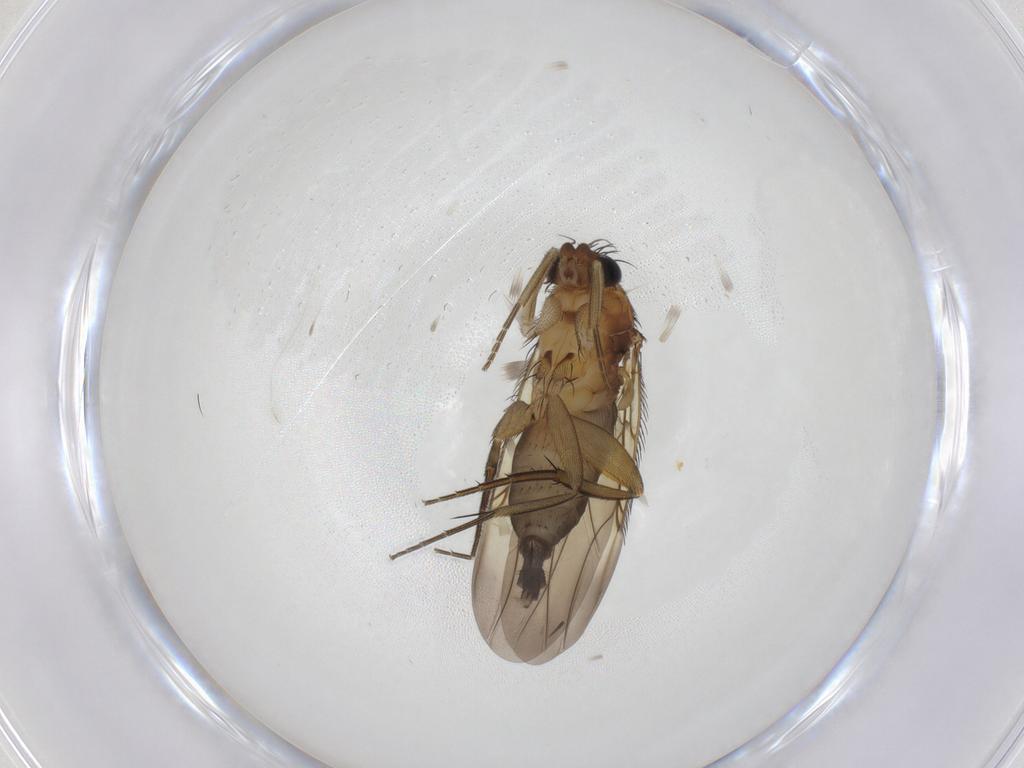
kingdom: Animalia
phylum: Arthropoda
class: Insecta
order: Diptera
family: Phoridae
